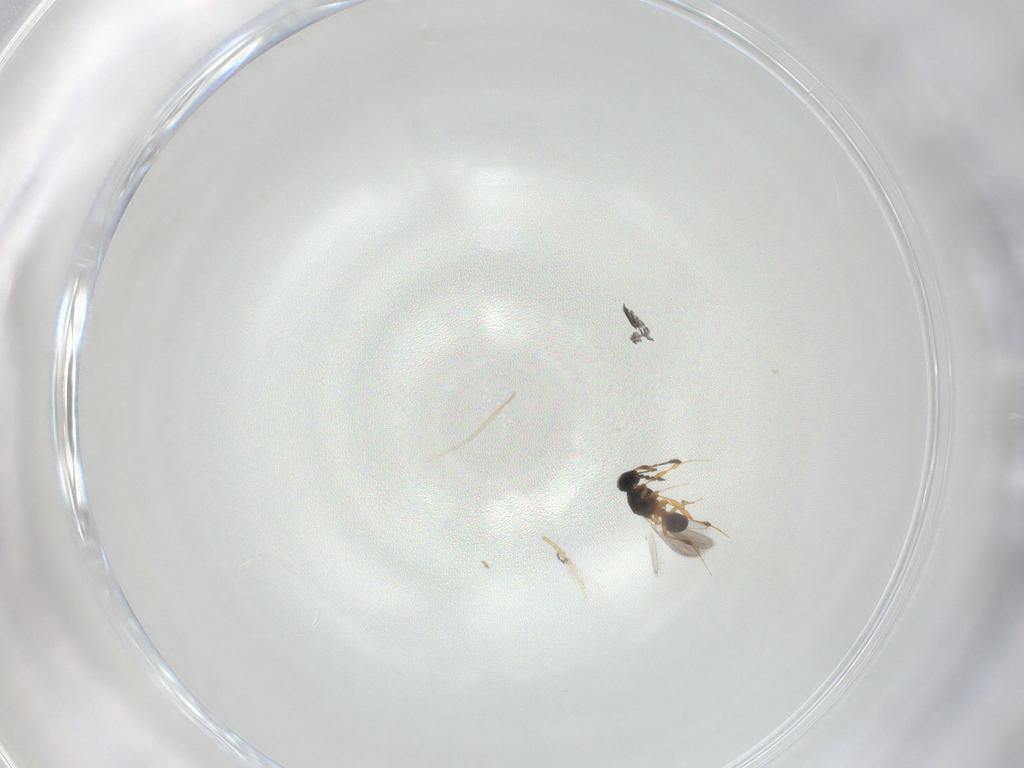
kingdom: Animalia
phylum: Arthropoda
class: Insecta
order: Hymenoptera
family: Platygastridae
